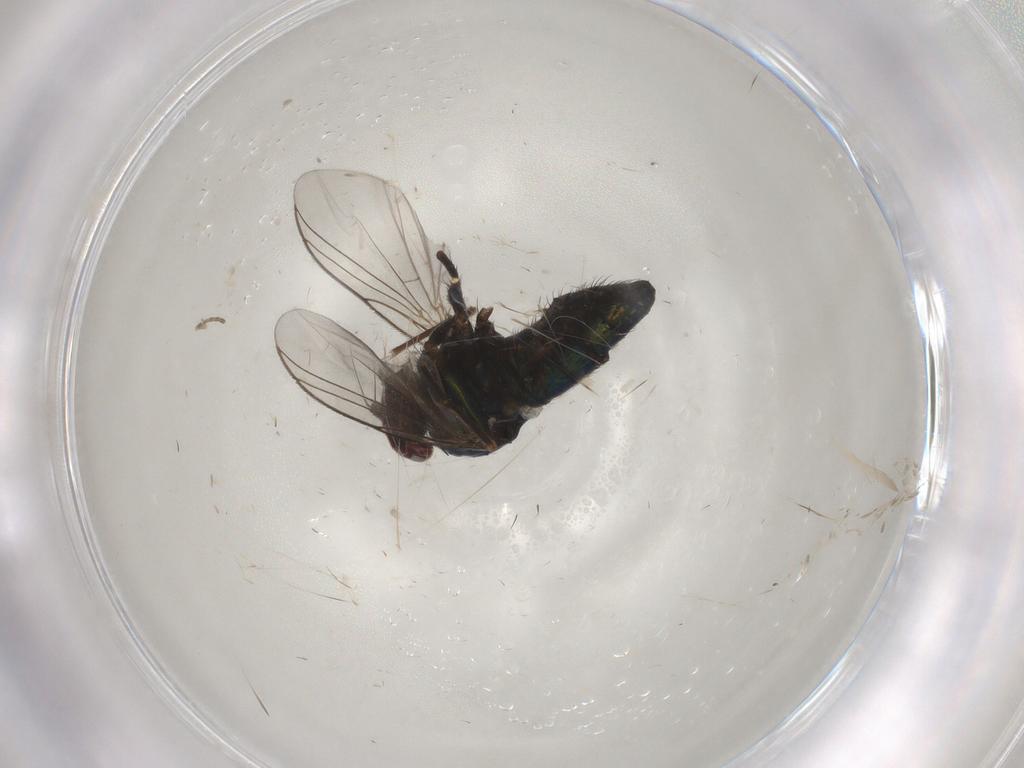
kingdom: Animalia
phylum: Arthropoda
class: Insecta
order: Diptera
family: Dolichopodidae
